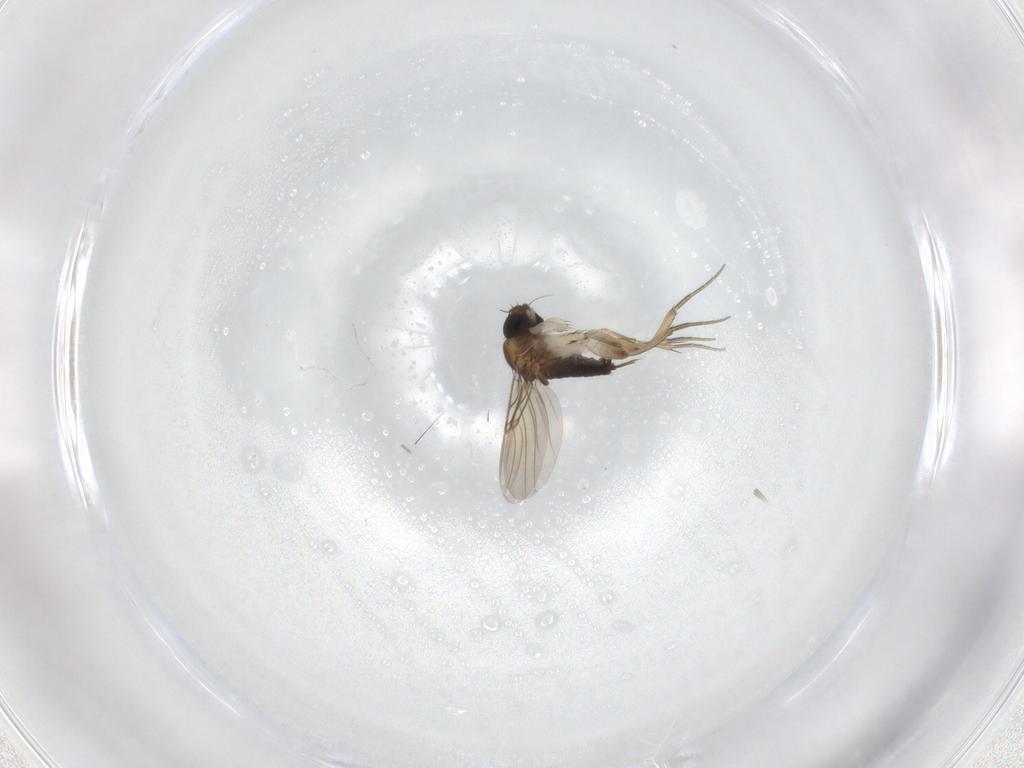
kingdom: Animalia
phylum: Arthropoda
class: Insecta
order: Diptera
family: Phoridae
